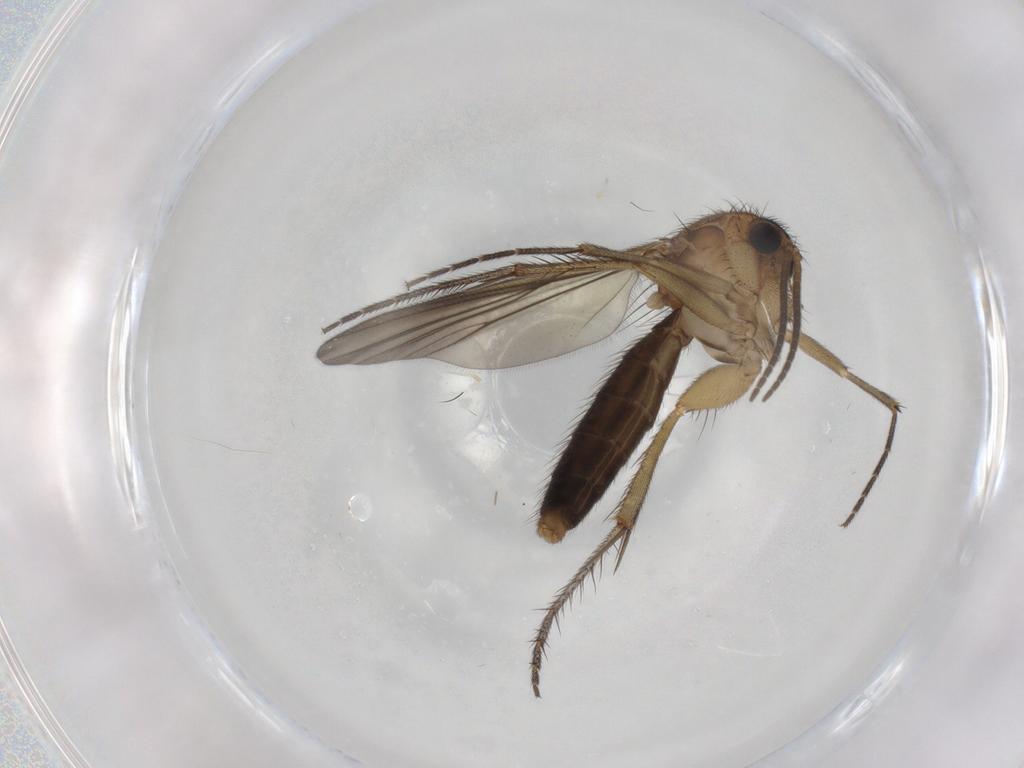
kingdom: Animalia
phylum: Arthropoda
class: Insecta
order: Diptera
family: Sciaridae
